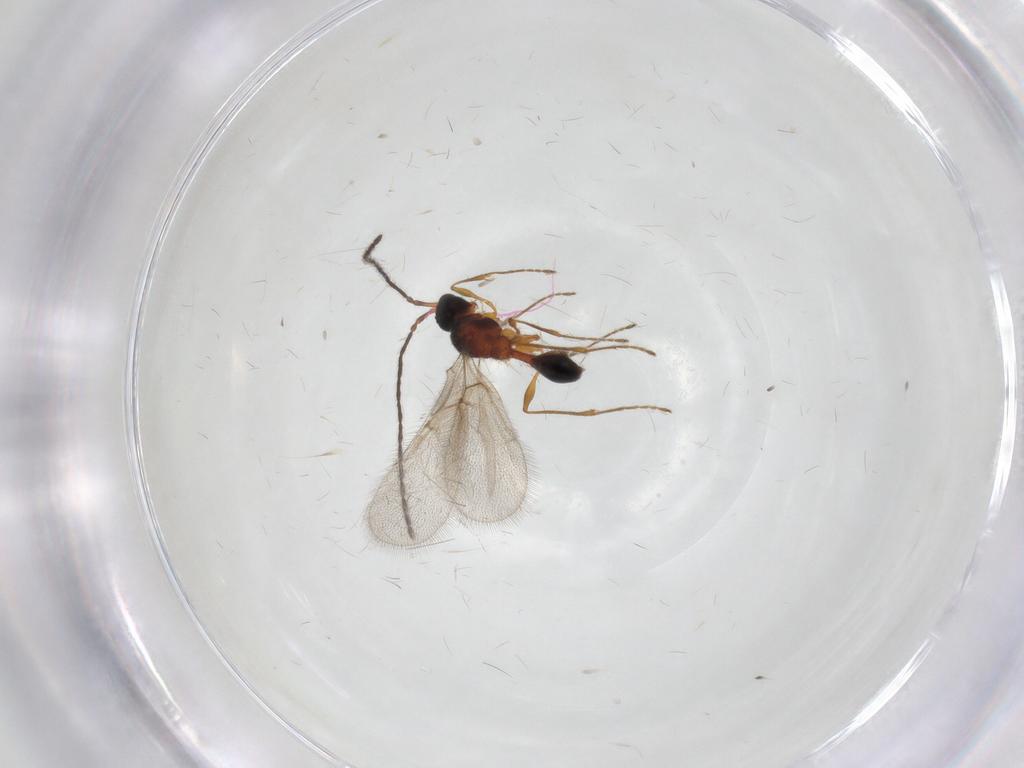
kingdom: Animalia
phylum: Arthropoda
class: Insecta
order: Hymenoptera
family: Diapriidae
